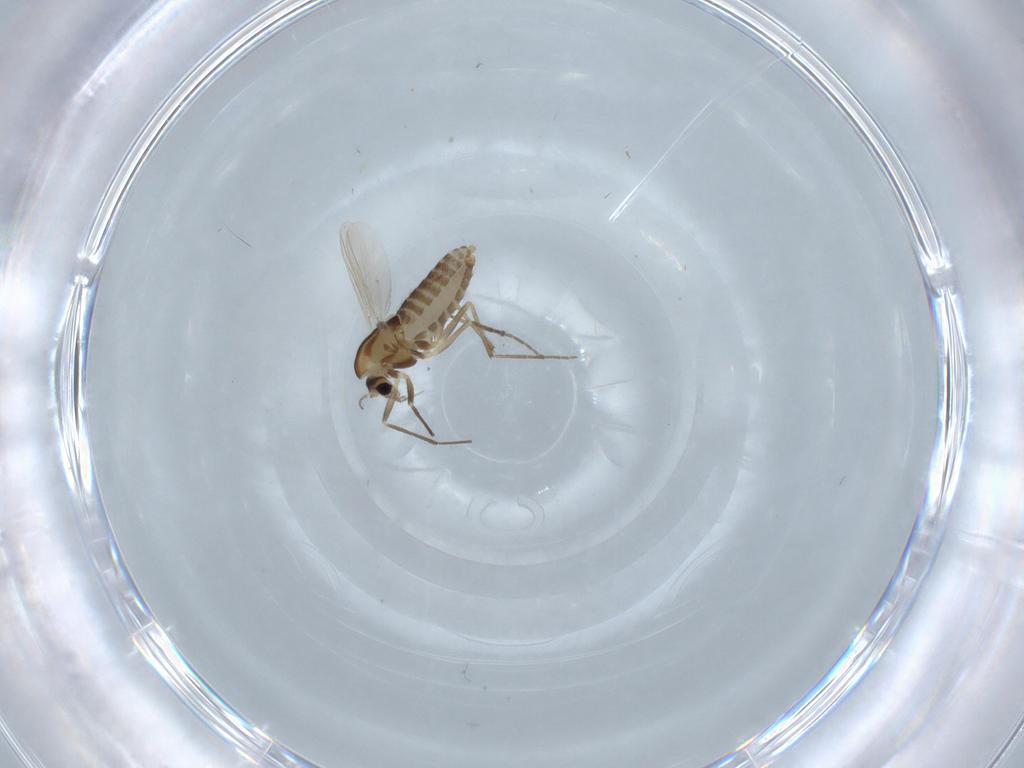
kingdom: Animalia
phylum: Arthropoda
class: Insecta
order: Diptera
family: Chironomidae
